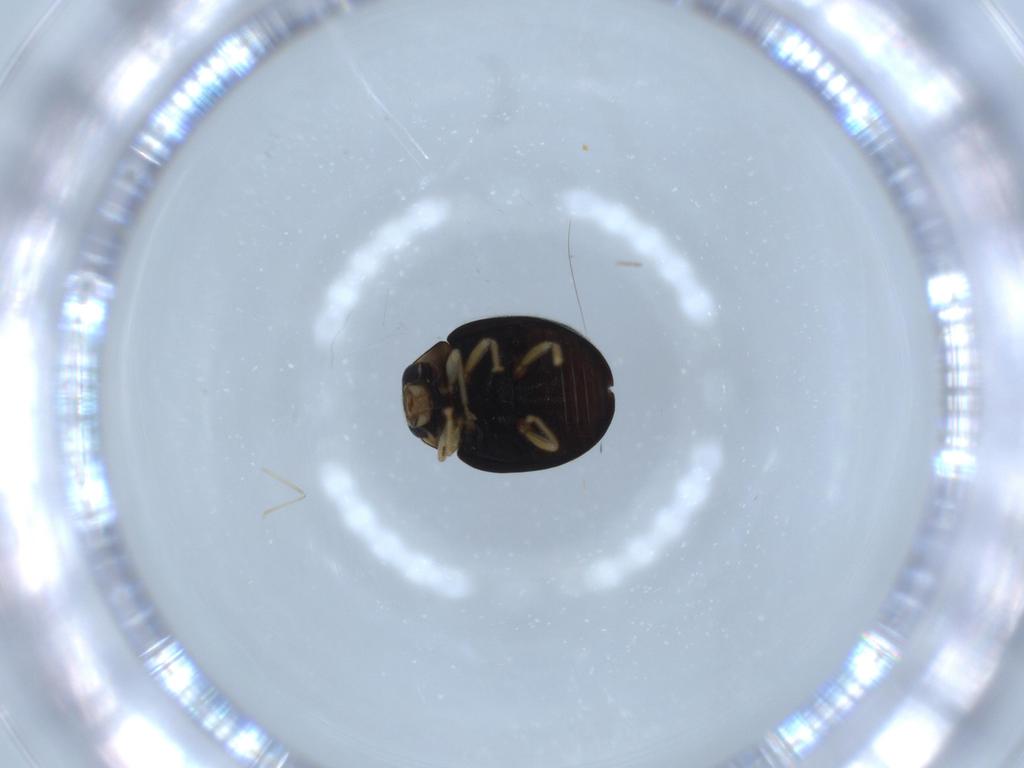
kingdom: Animalia
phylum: Arthropoda
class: Insecta
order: Coleoptera
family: Coccinellidae
